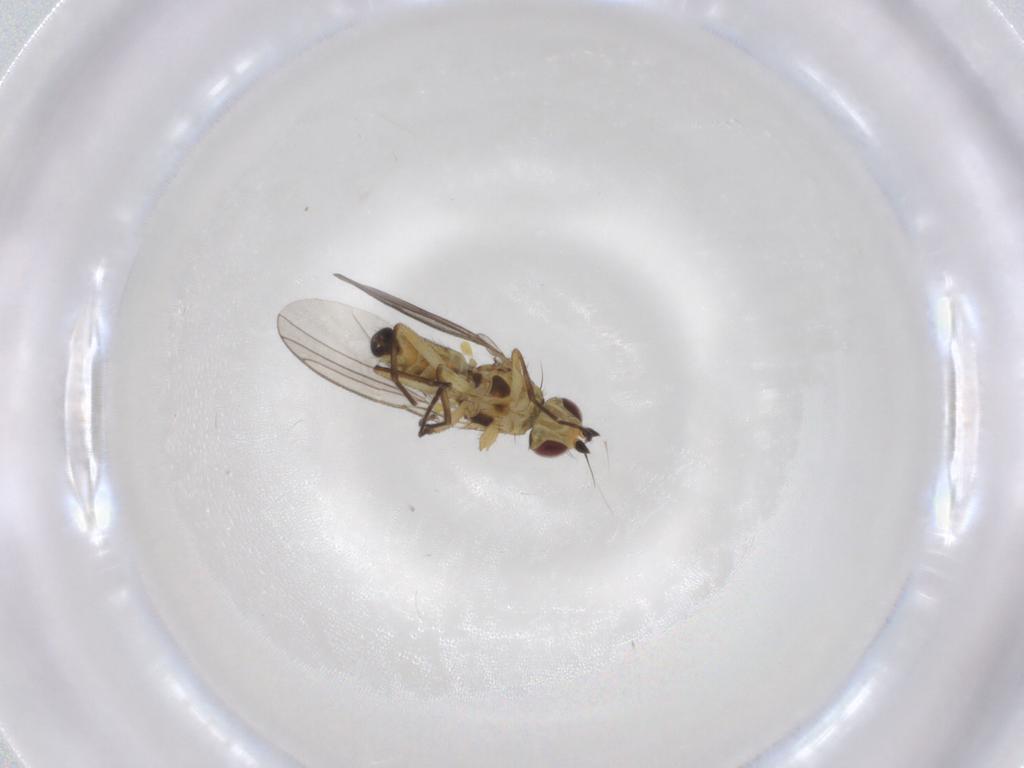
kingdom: Animalia
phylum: Arthropoda
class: Insecta
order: Diptera
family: Agromyzidae
